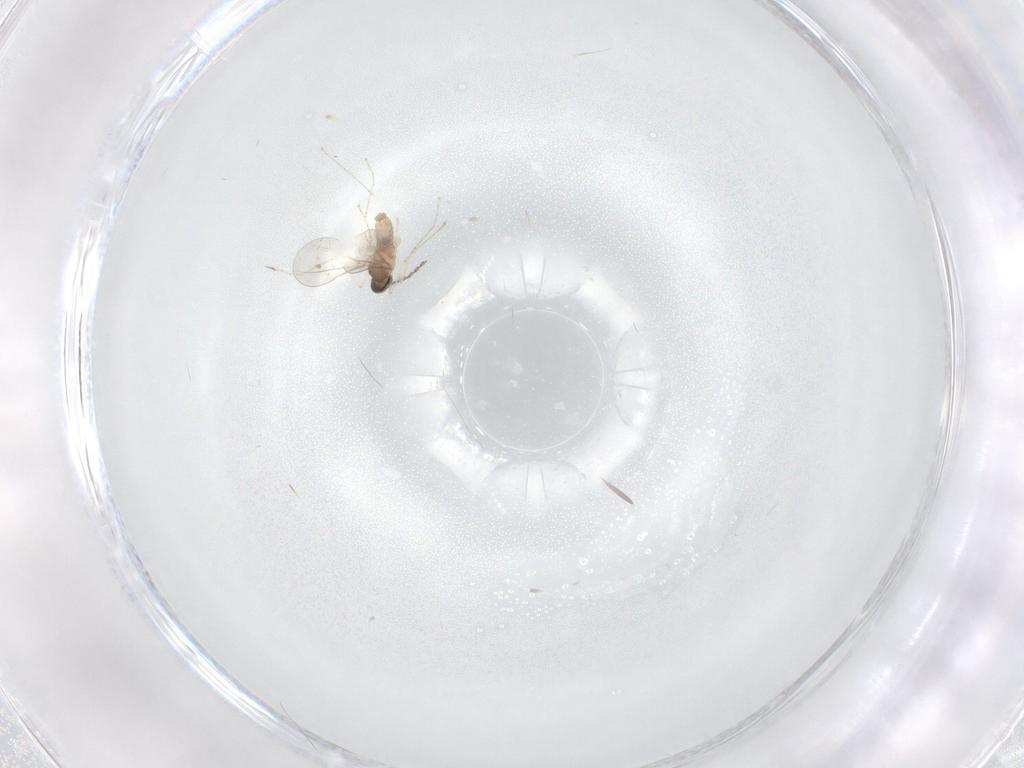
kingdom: Animalia
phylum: Arthropoda
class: Insecta
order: Diptera
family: Cecidomyiidae
